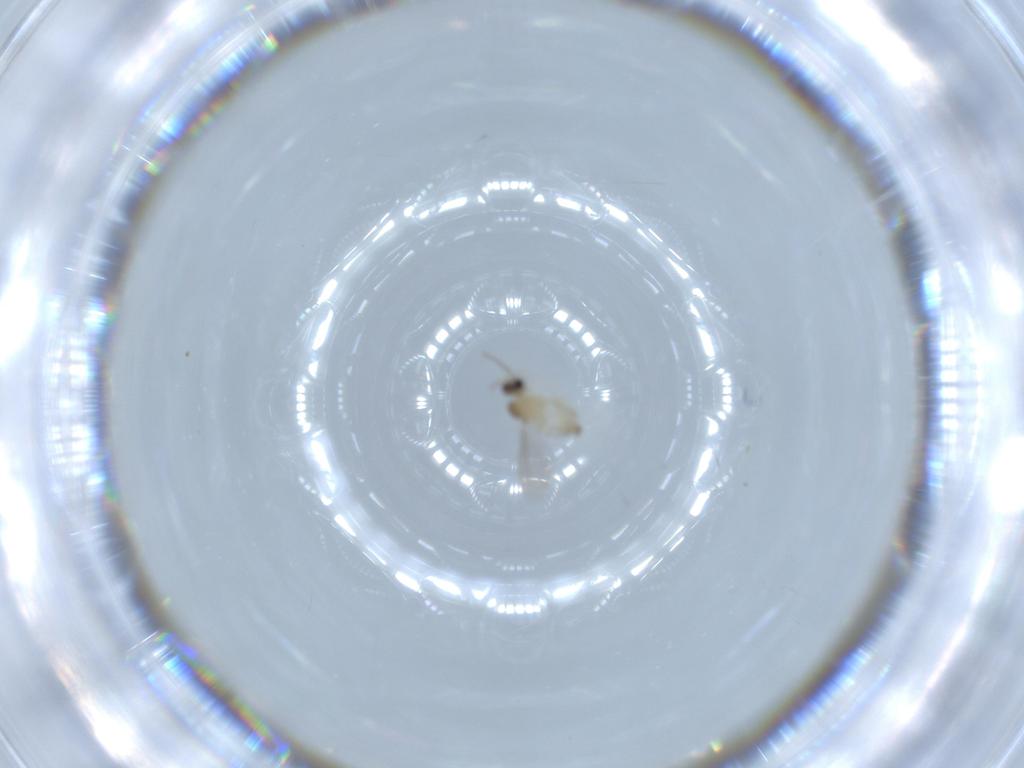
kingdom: Animalia
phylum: Arthropoda
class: Insecta
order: Diptera
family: Cecidomyiidae
